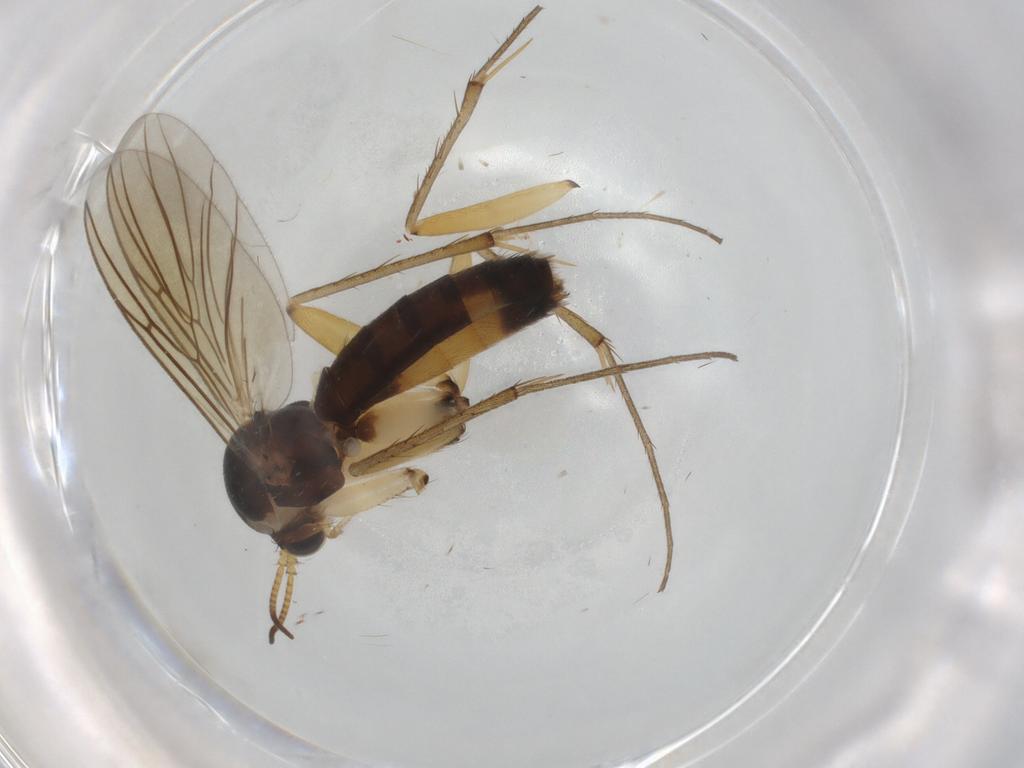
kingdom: Animalia
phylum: Arthropoda
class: Insecta
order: Diptera
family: Mycetophilidae
